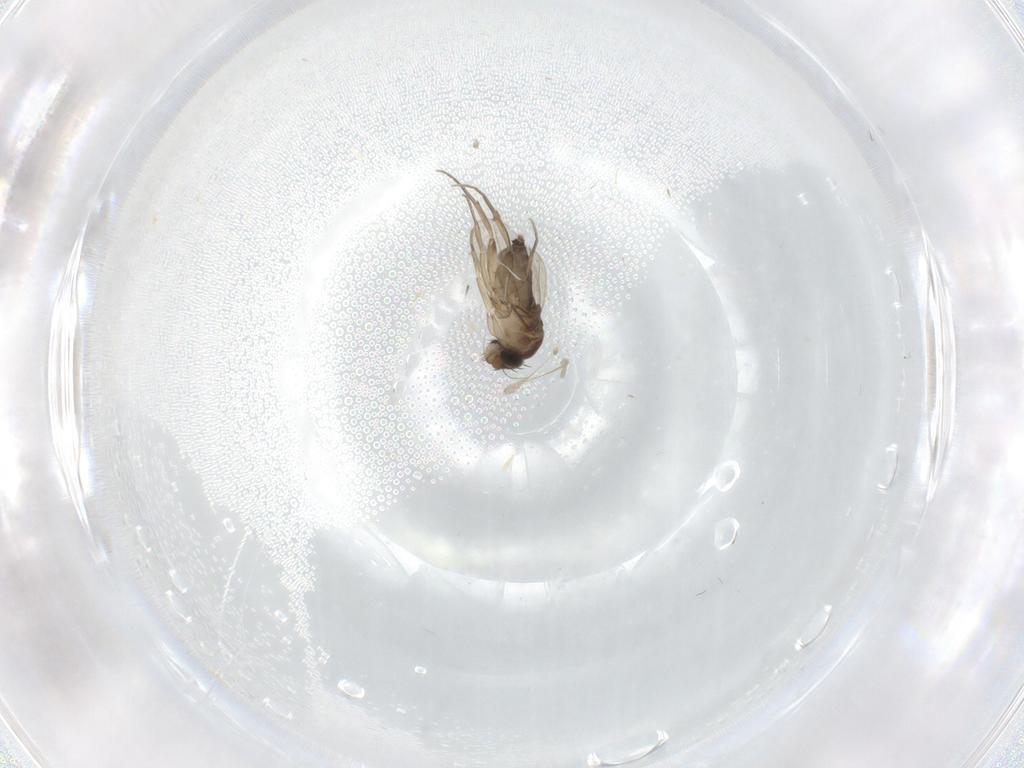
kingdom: Animalia
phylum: Arthropoda
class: Insecta
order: Diptera
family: Phoridae
